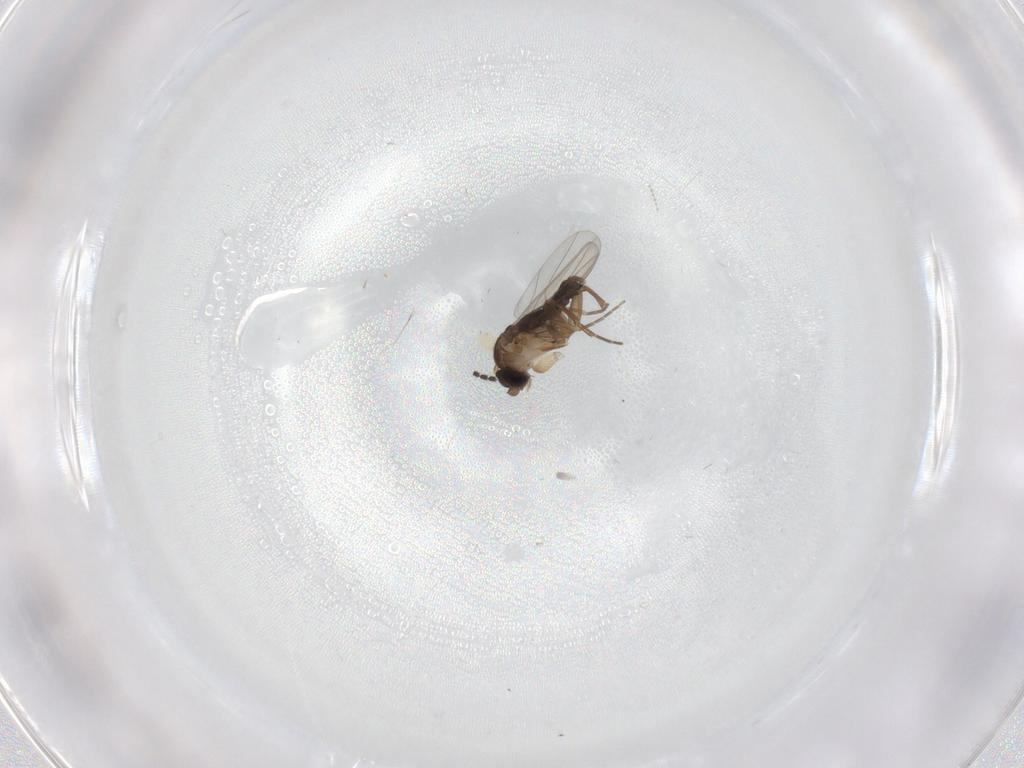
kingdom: Animalia
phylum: Arthropoda
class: Insecta
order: Diptera
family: Phoridae
